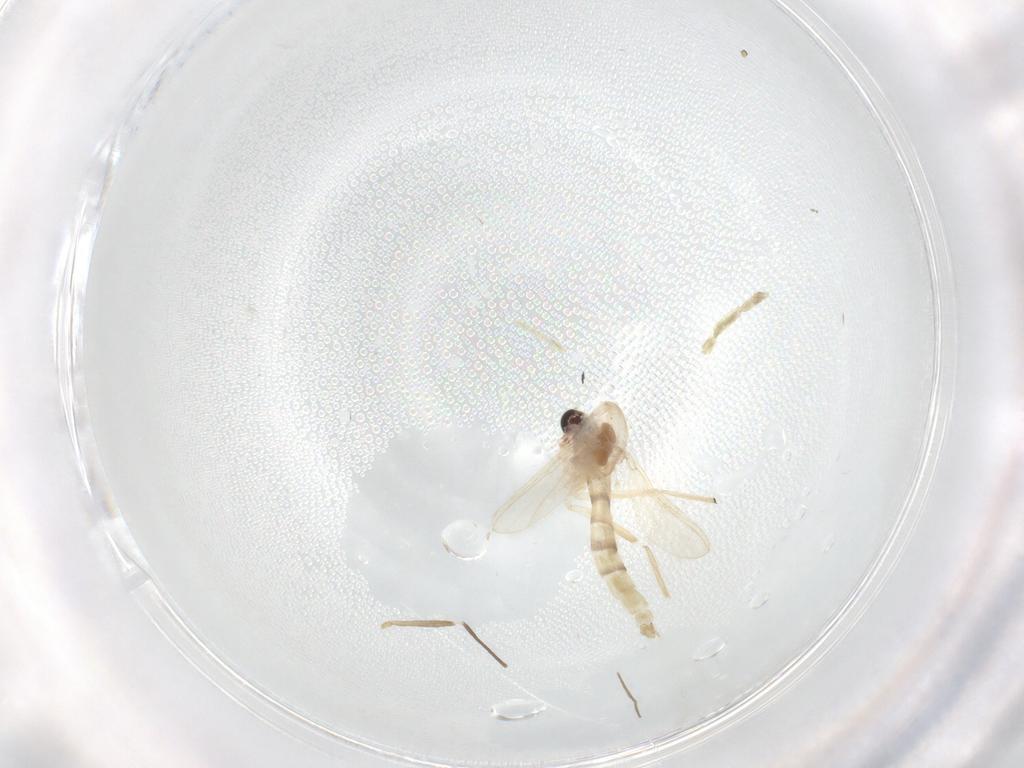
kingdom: Animalia
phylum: Arthropoda
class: Insecta
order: Diptera
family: Chironomidae
